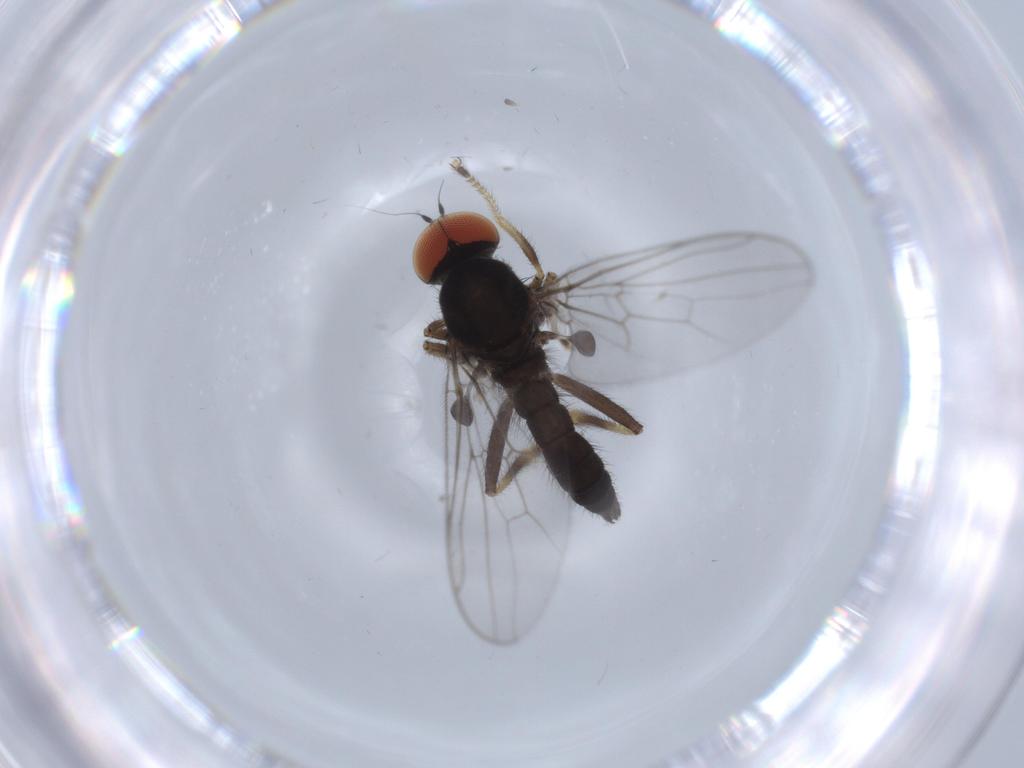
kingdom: Animalia
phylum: Arthropoda
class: Insecta
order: Diptera
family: Hybotidae
